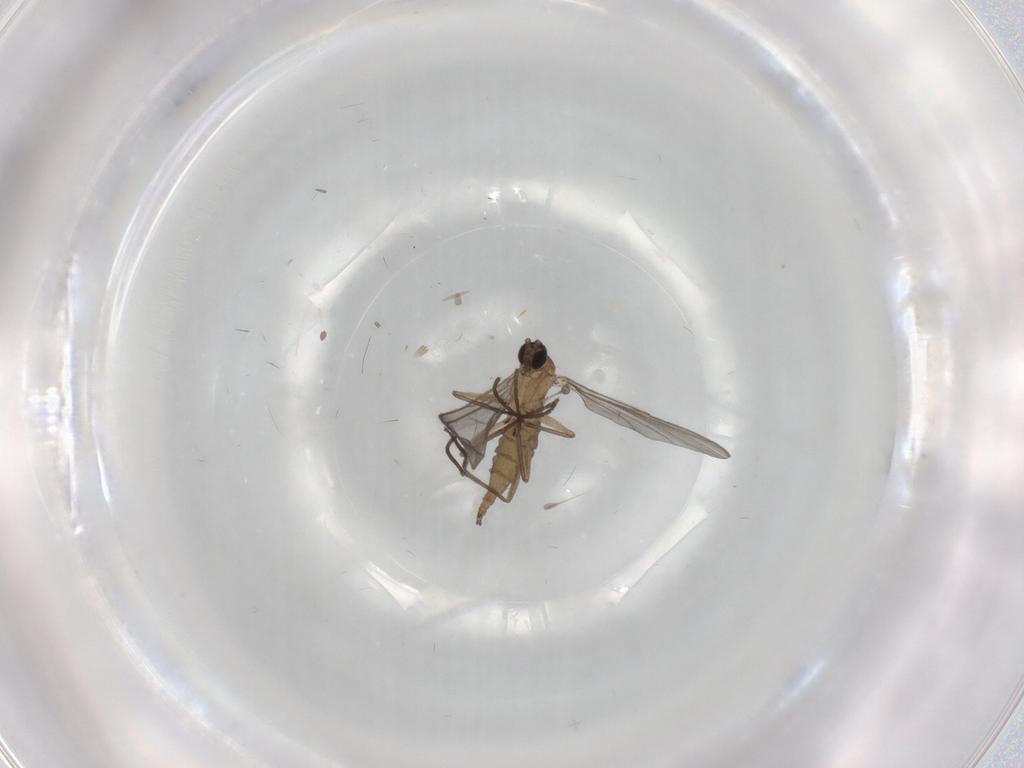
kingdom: Animalia
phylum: Arthropoda
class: Insecta
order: Diptera
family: Sciaridae
